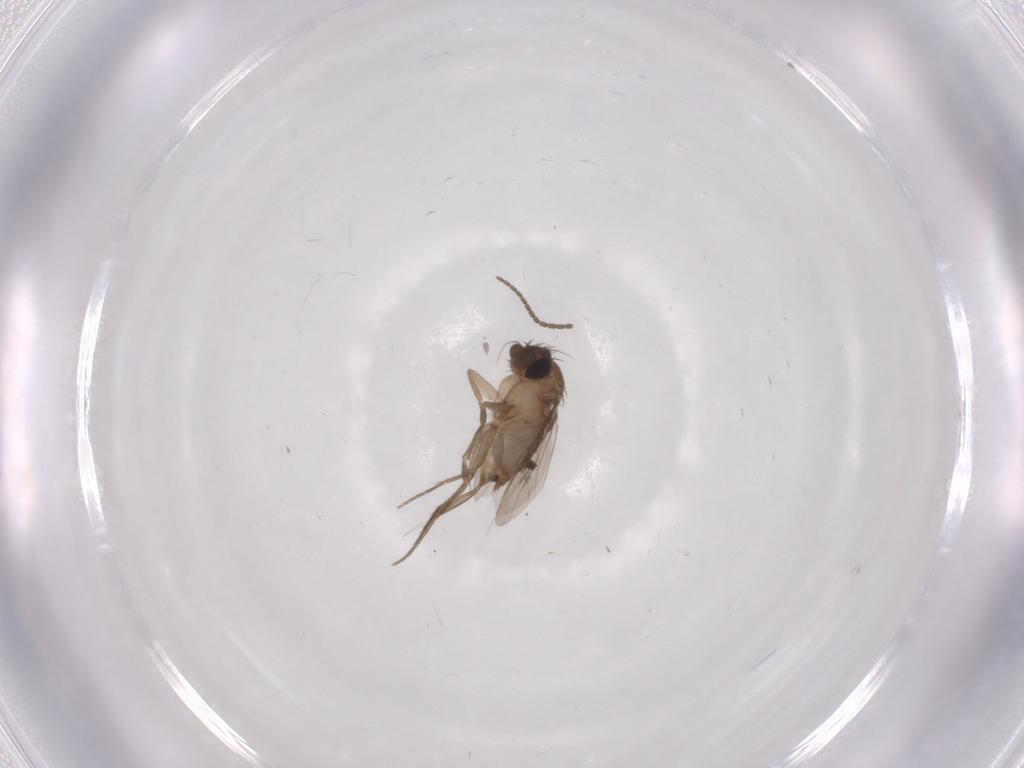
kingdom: Animalia
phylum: Arthropoda
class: Insecta
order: Diptera
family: Phoridae
